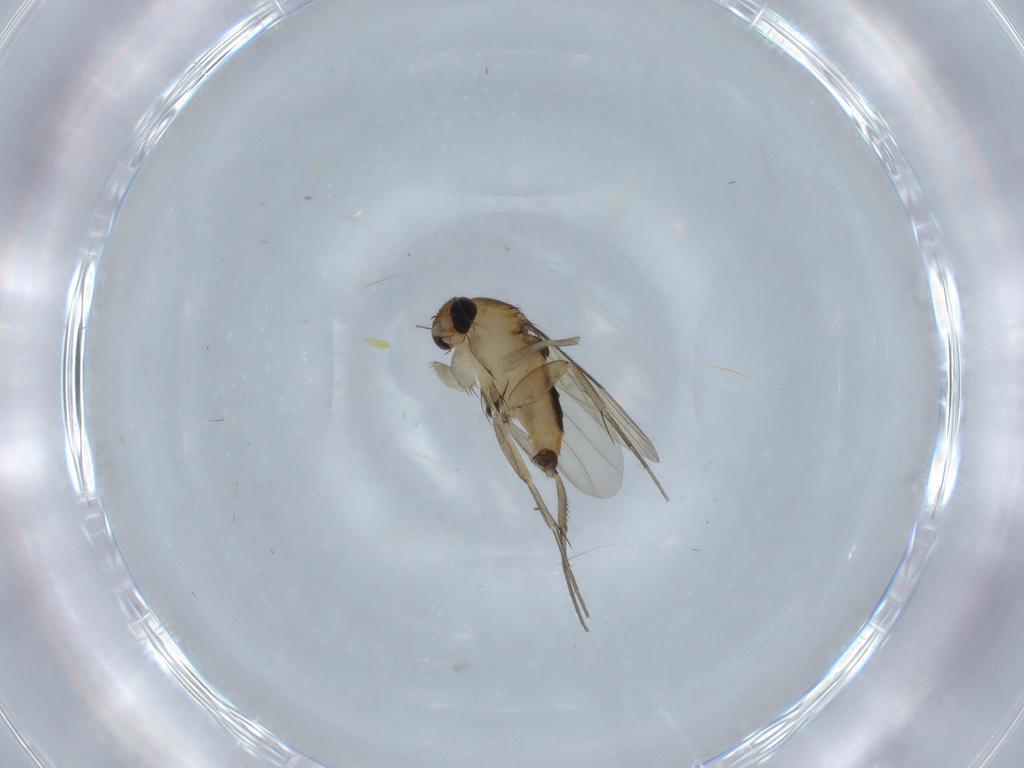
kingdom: Animalia
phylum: Arthropoda
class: Insecta
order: Diptera
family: Phoridae
